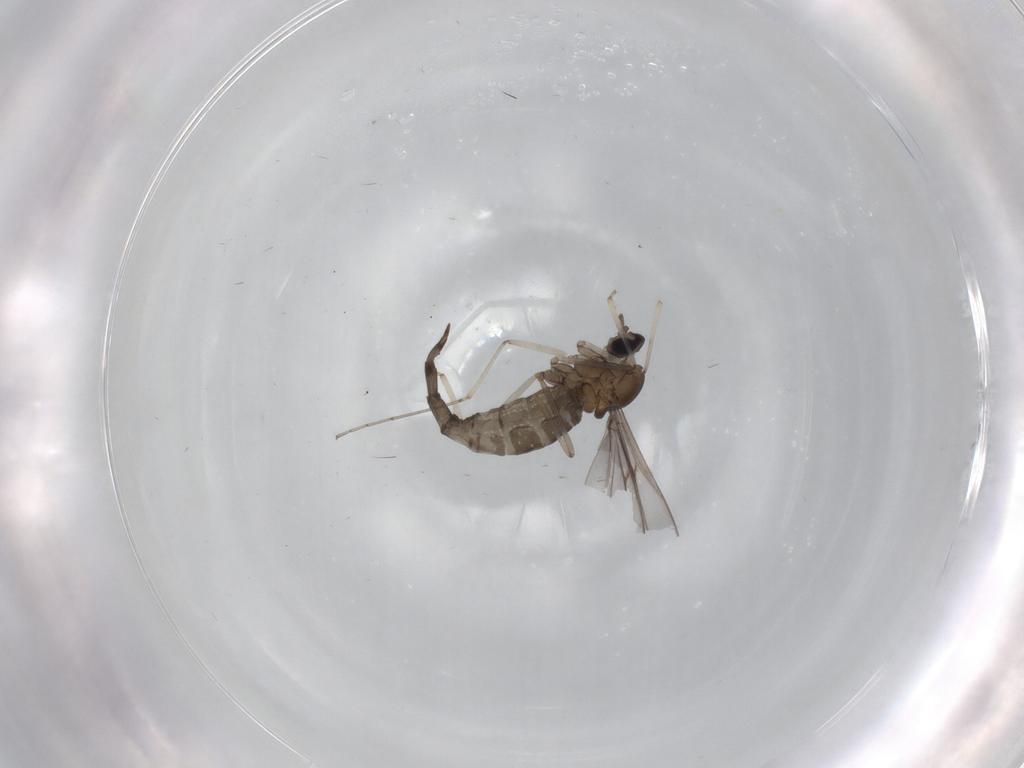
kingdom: Animalia
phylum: Arthropoda
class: Insecta
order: Diptera
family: Cecidomyiidae
